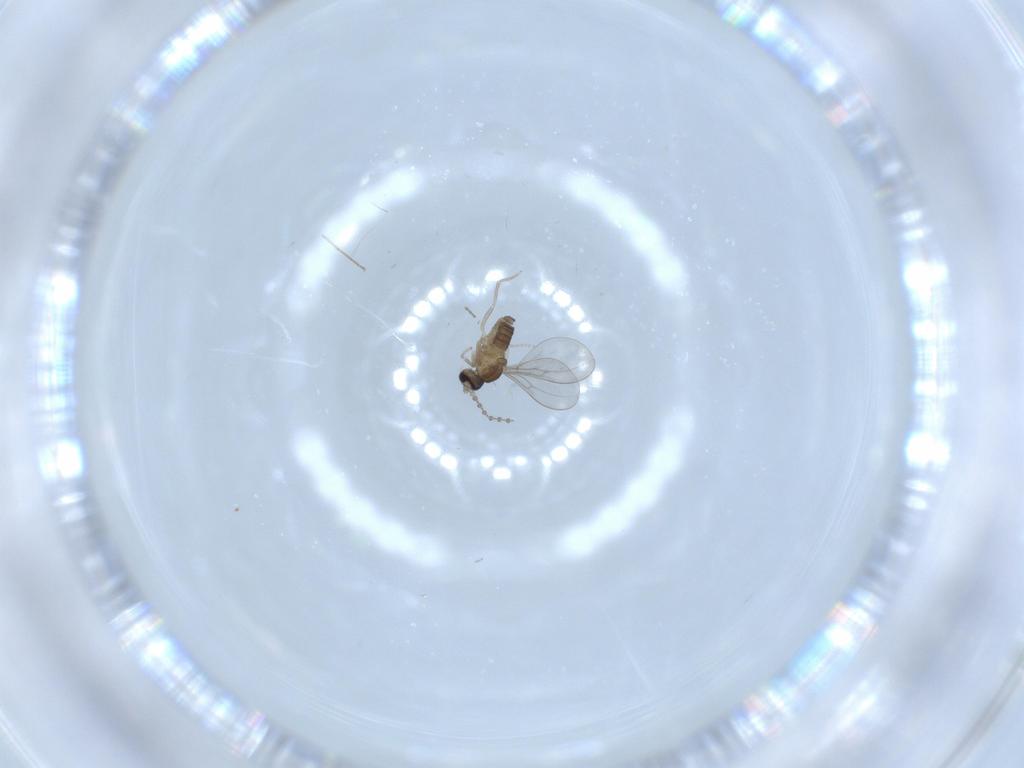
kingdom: Animalia
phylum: Arthropoda
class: Insecta
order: Diptera
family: Cecidomyiidae
